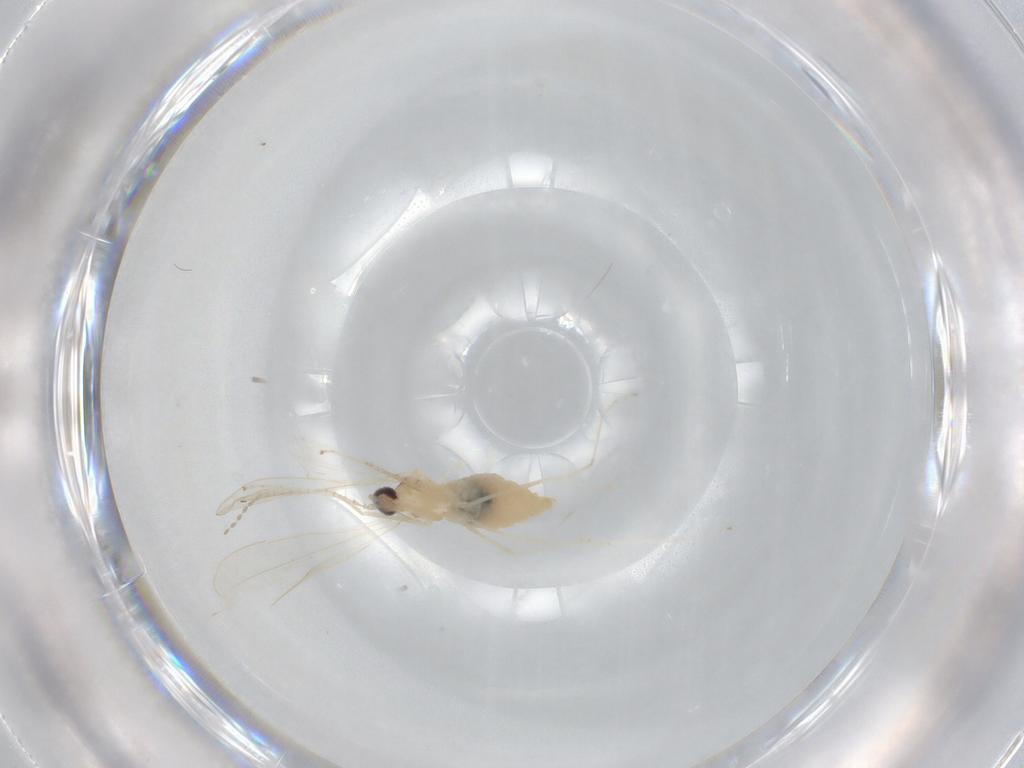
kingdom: Animalia
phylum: Arthropoda
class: Insecta
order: Diptera
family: Cecidomyiidae
